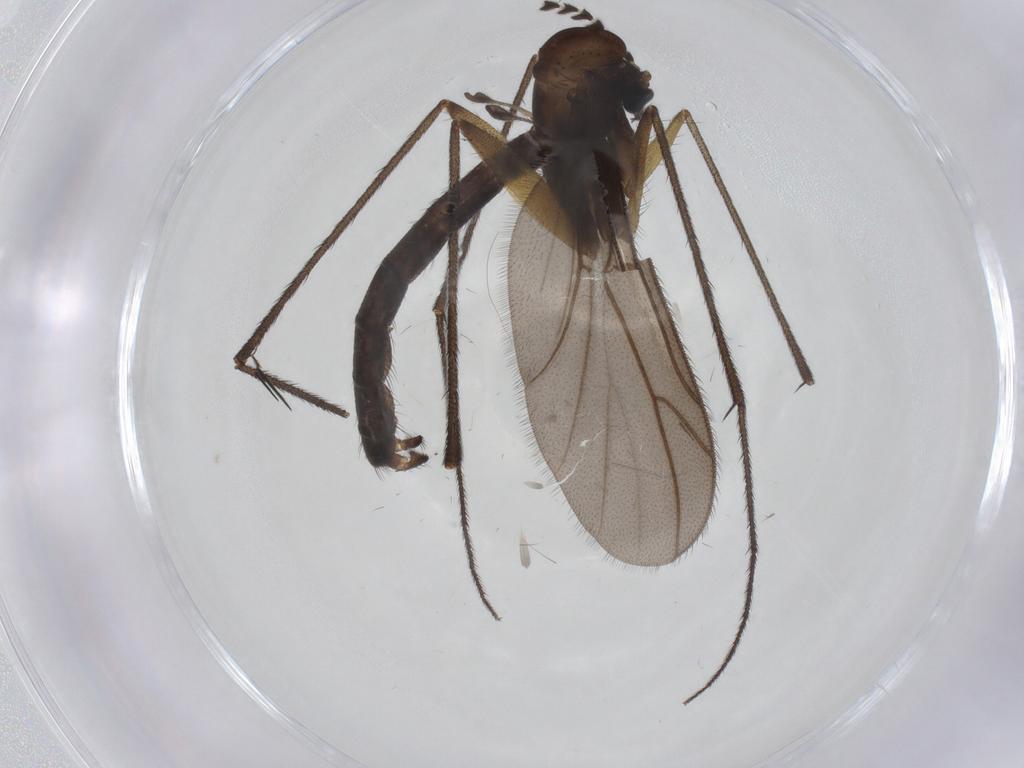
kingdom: Animalia
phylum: Arthropoda
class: Insecta
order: Diptera
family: Ditomyiidae
